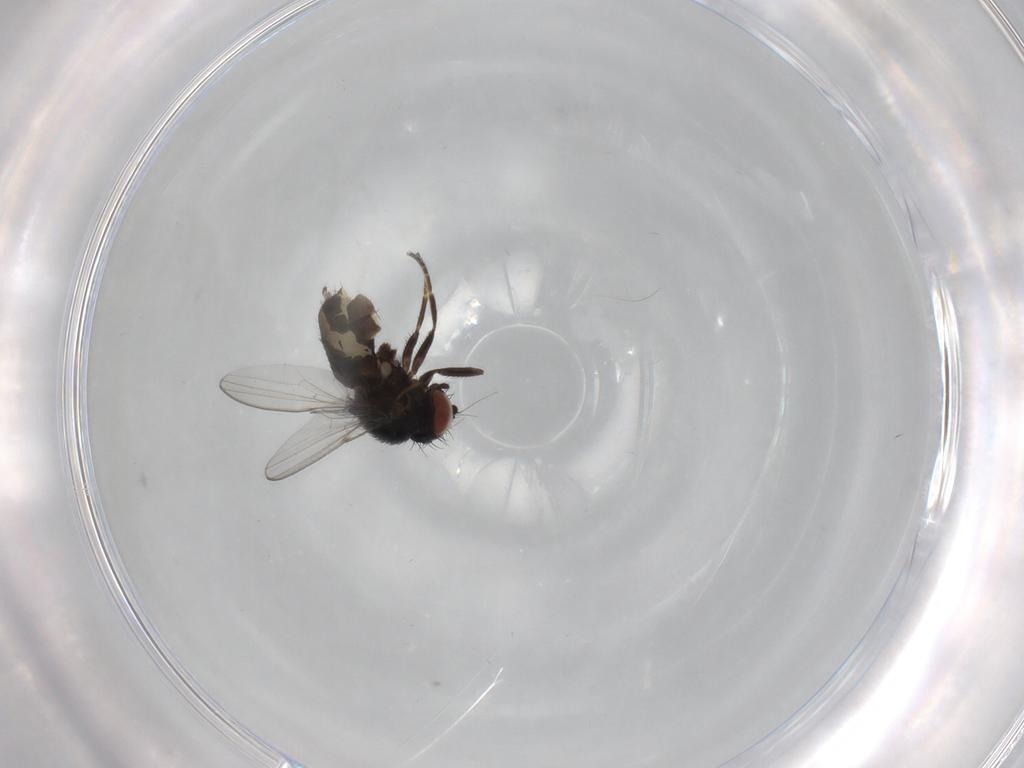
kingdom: Animalia
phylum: Arthropoda
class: Insecta
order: Diptera
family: Milichiidae
